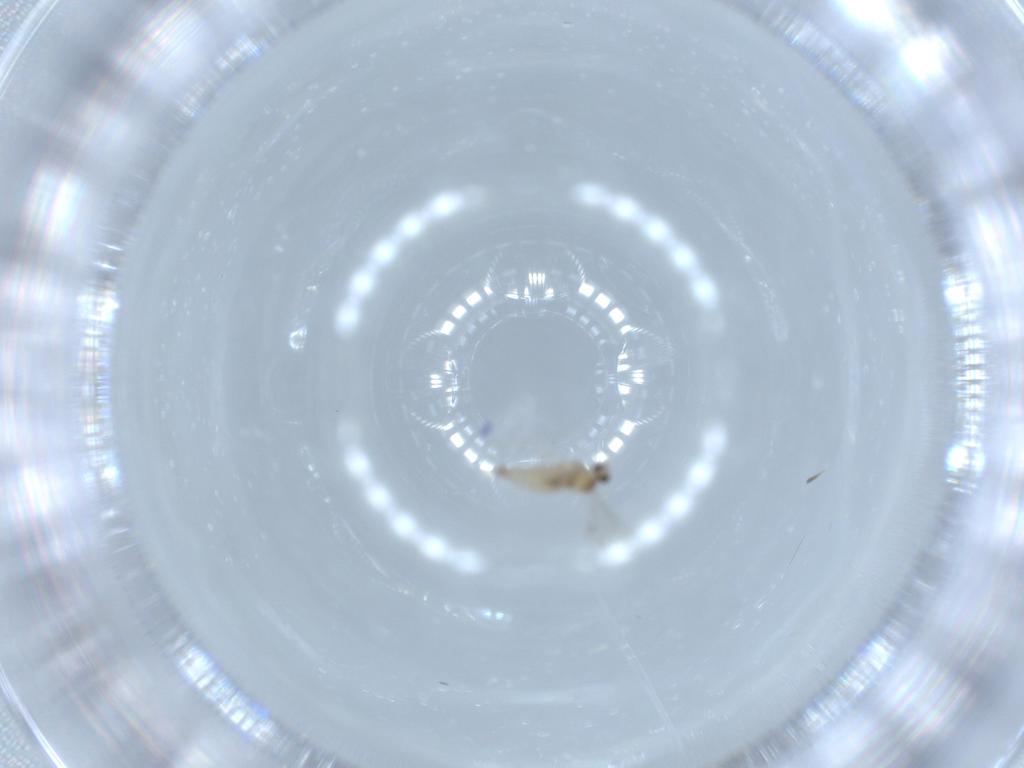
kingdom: Animalia
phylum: Arthropoda
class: Insecta
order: Diptera
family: Cecidomyiidae
